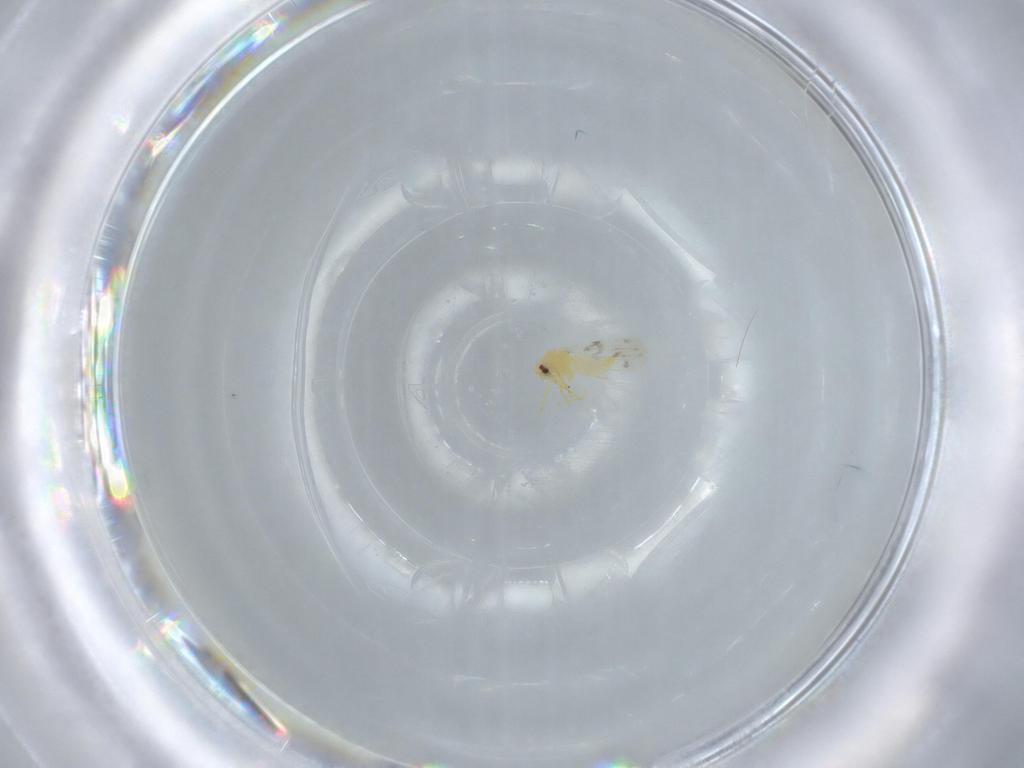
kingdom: Animalia
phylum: Arthropoda
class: Insecta
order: Hemiptera
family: Aleyrodidae
